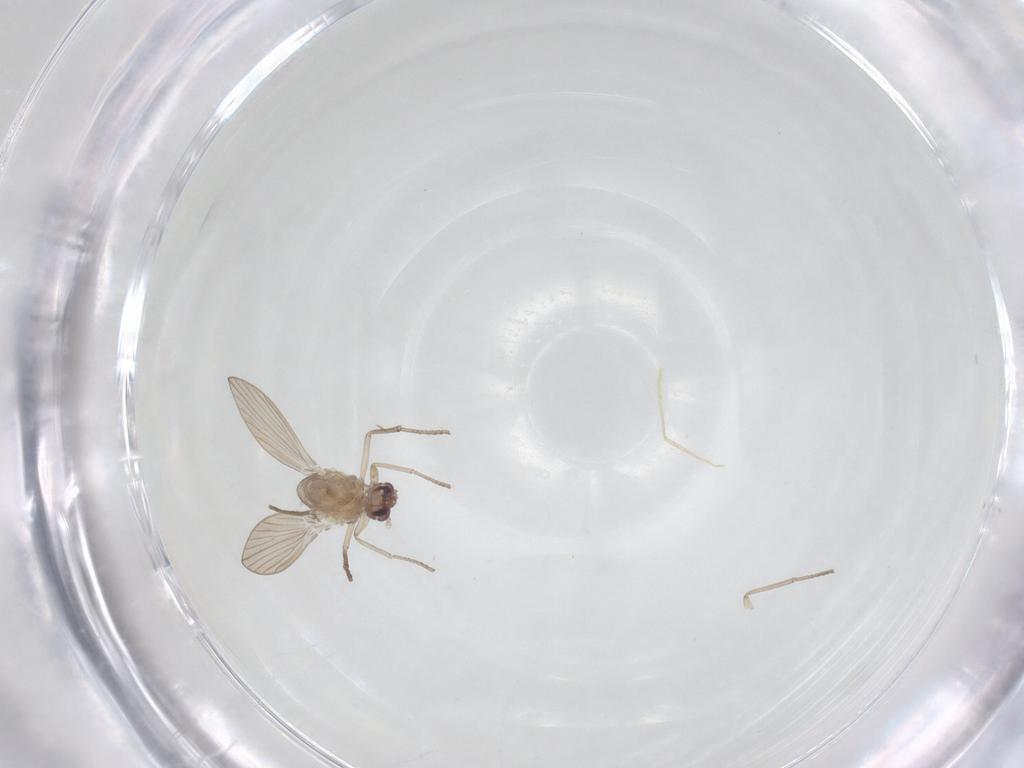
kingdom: Animalia
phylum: Arthropoda
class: Insecta
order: Diptera
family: Psychodidae
